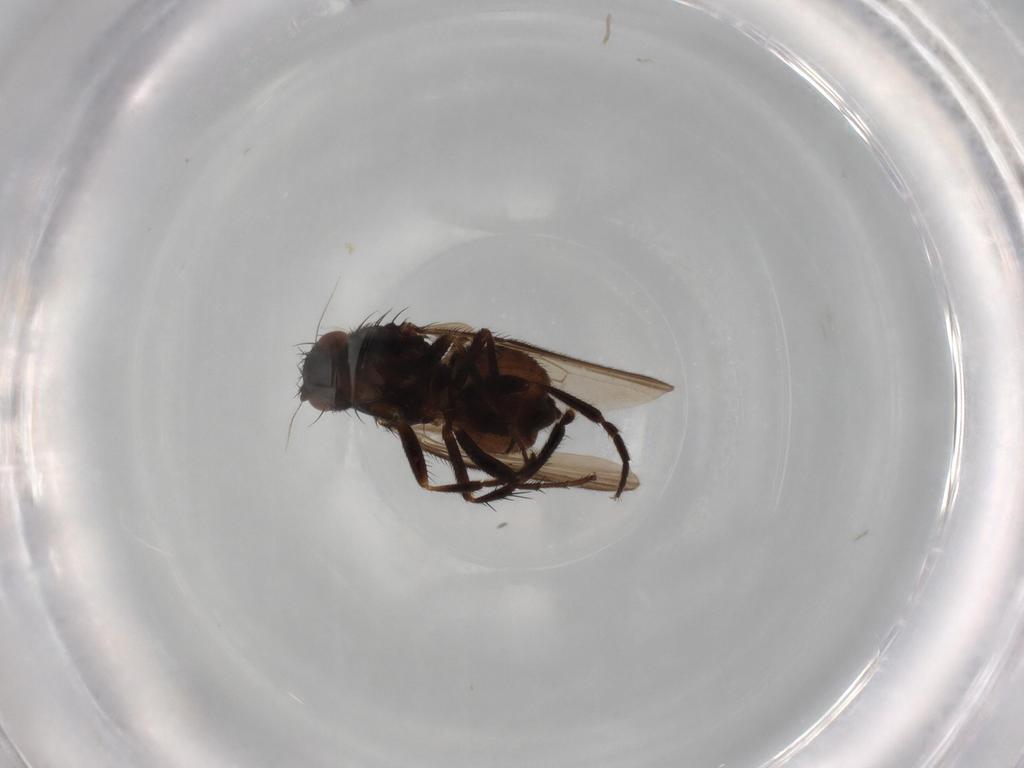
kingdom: Animalia
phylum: Arthropoda
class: Insecta
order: Diptera
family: Sphaeroceridae
